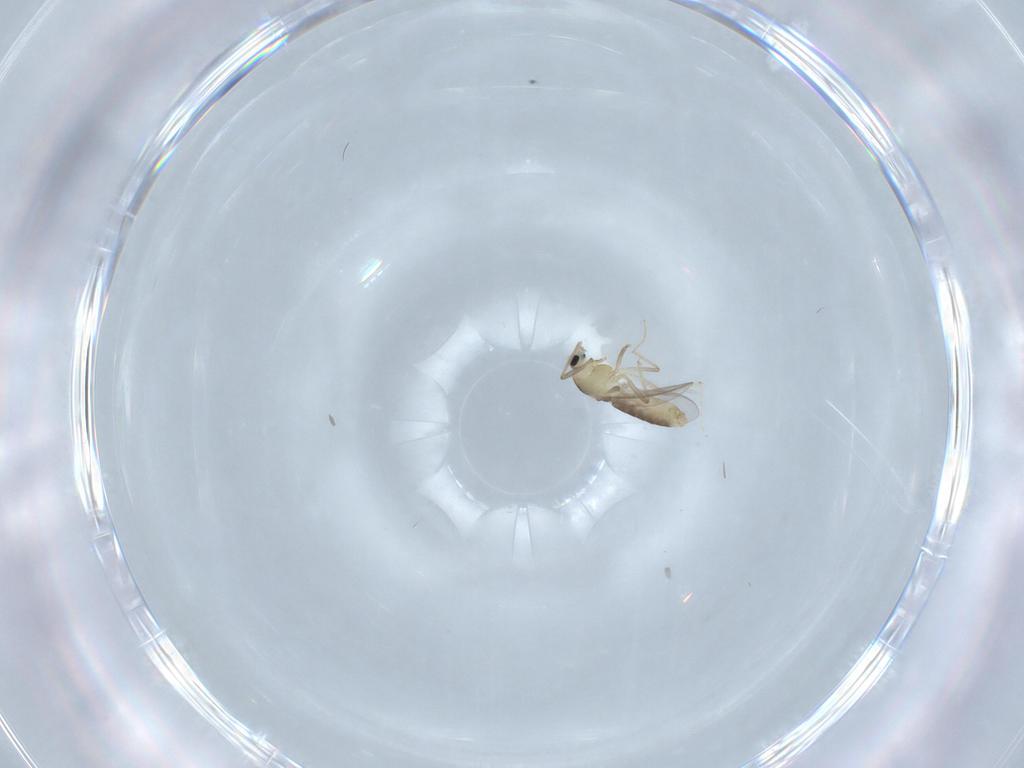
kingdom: Animalia
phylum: Arthropoda
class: Insecta
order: Diptera
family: Chironomidae
